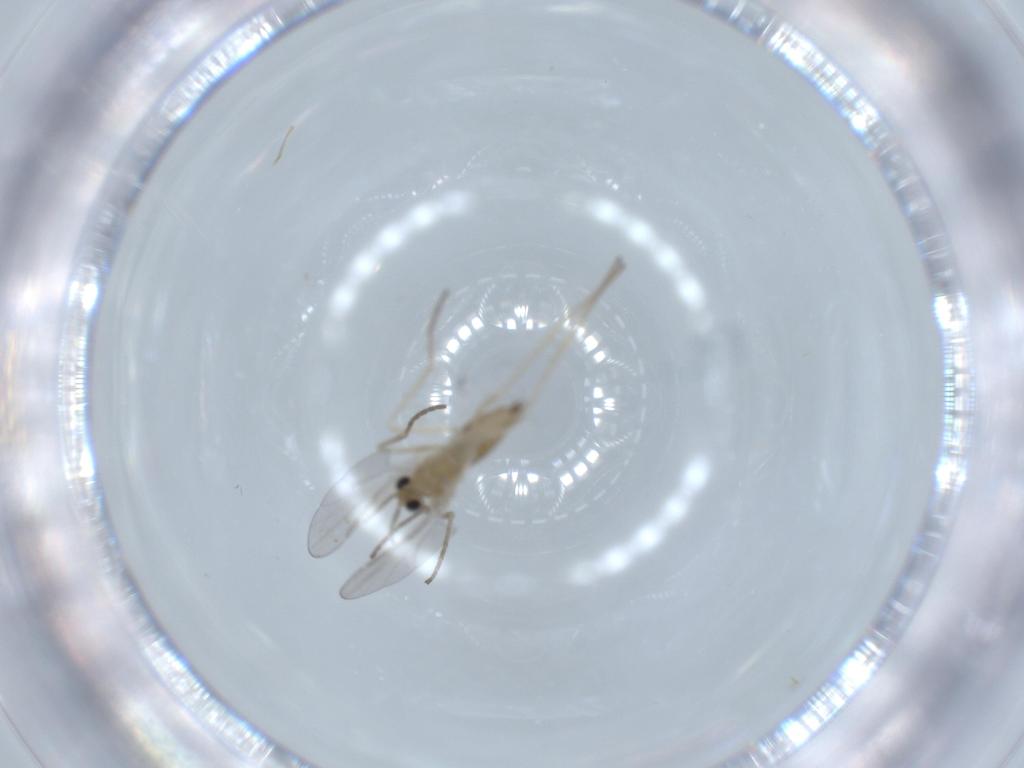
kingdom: Animalia
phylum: Arthropoda
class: Insecta
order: Diptera
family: Cecidomyiidae
